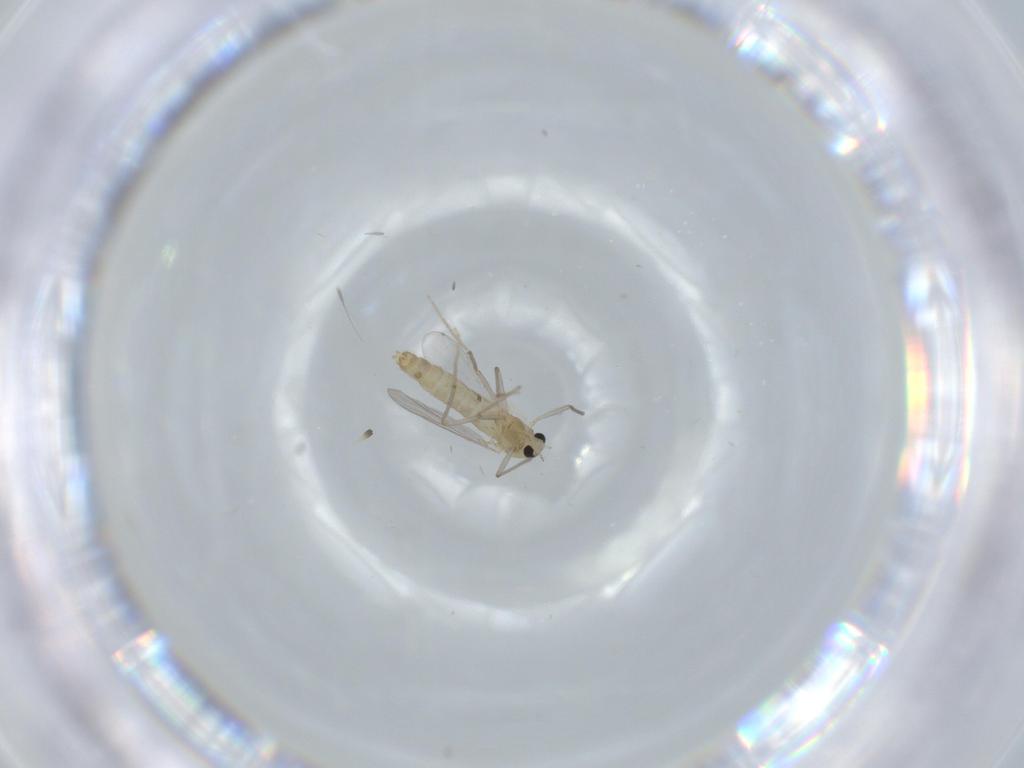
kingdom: Animalia
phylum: Arthropoda
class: Insecta
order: Diptera
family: Chironomidae
